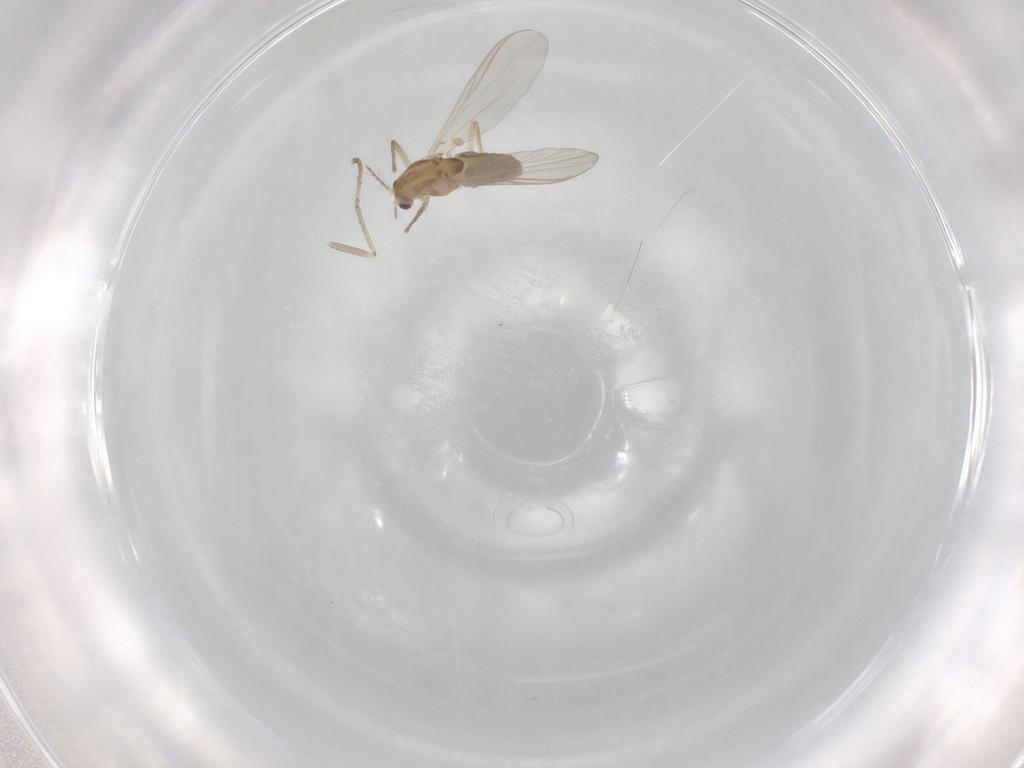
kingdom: Animalia
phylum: Arthropoda
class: Insecta
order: Diptera
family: Chironomidae
